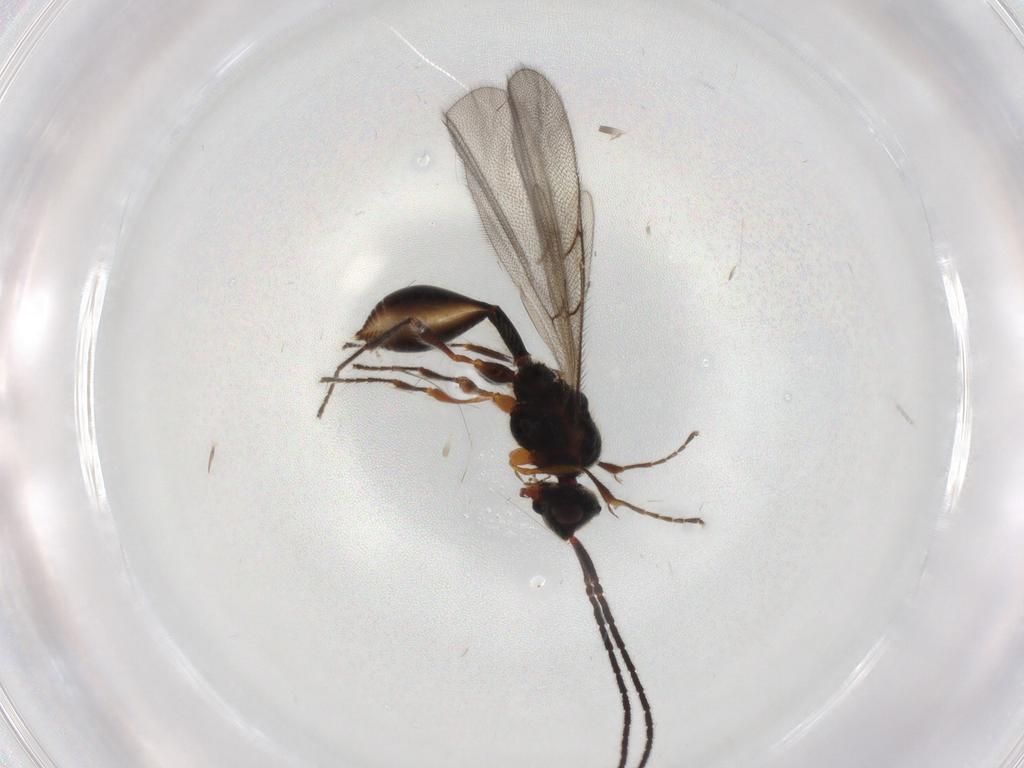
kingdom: Animalia
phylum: Arthropoda
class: Insecta
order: Hymenoptera
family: Diapriidae
